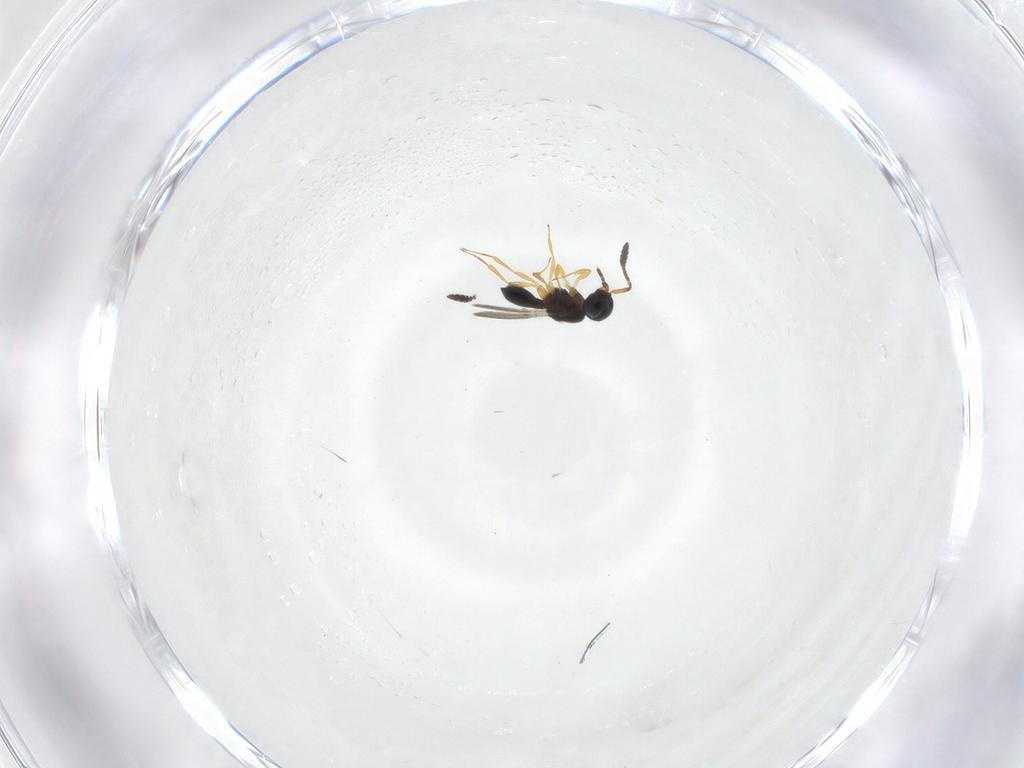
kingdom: Animalia
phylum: Arthropoda
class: Insecta
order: Hymenoptera
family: Scelionidae
